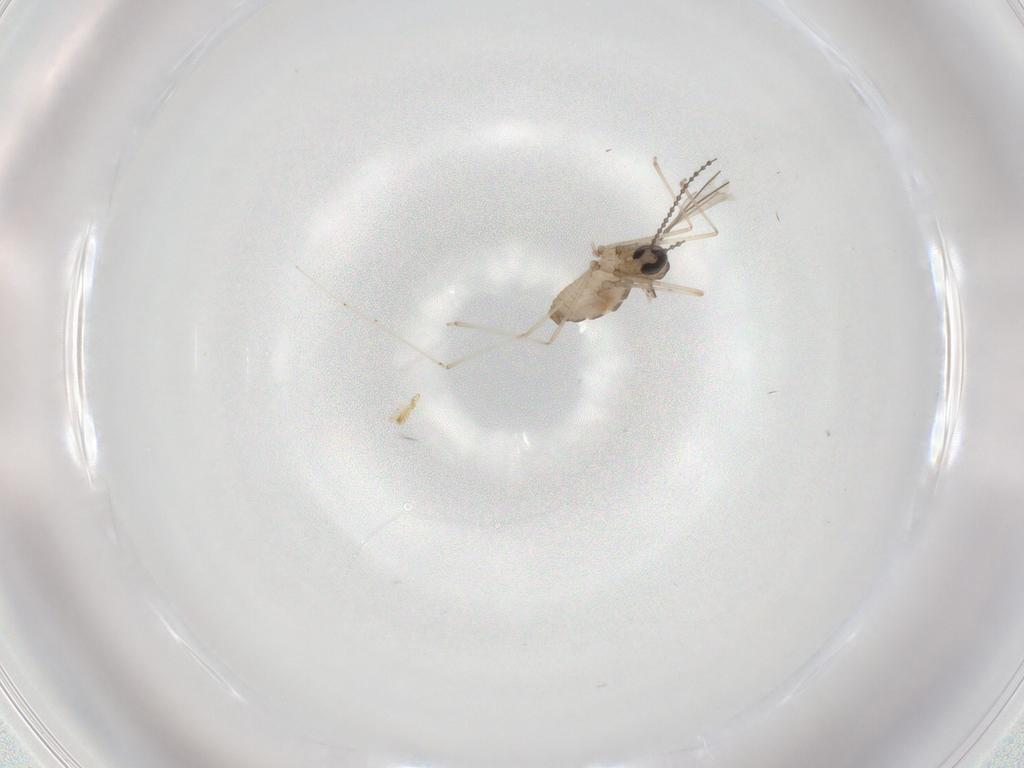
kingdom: Animalia
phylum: Arthropoda
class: Insecta
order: Diptera
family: Cecidomyiidae
